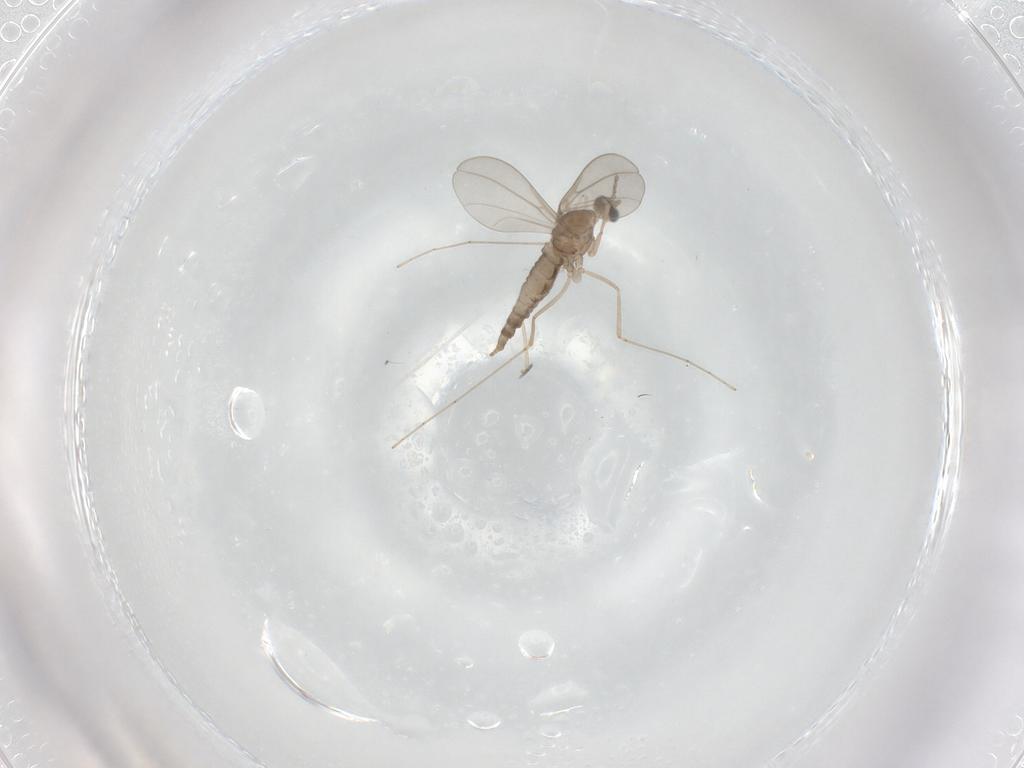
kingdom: Animalia
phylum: Arthropoda
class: Insecta
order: Diptera
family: Cecidomyiidae
